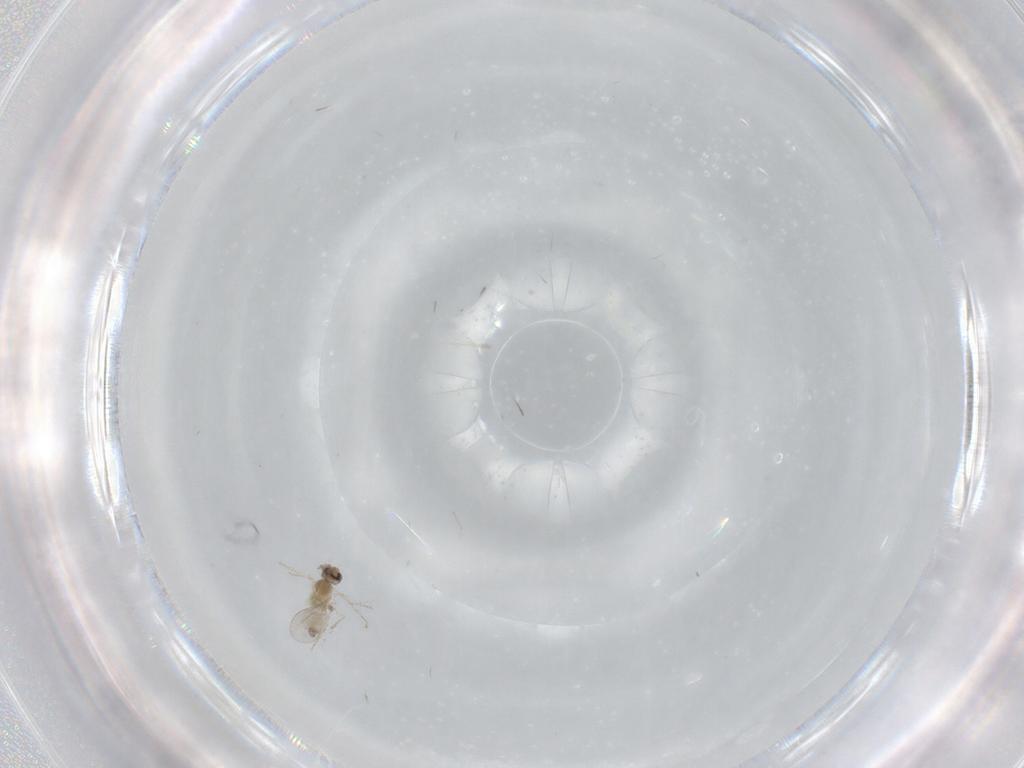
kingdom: Animalia
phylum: Arthropoda
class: Insecta
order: Diptera
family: Cecidomyiidae
